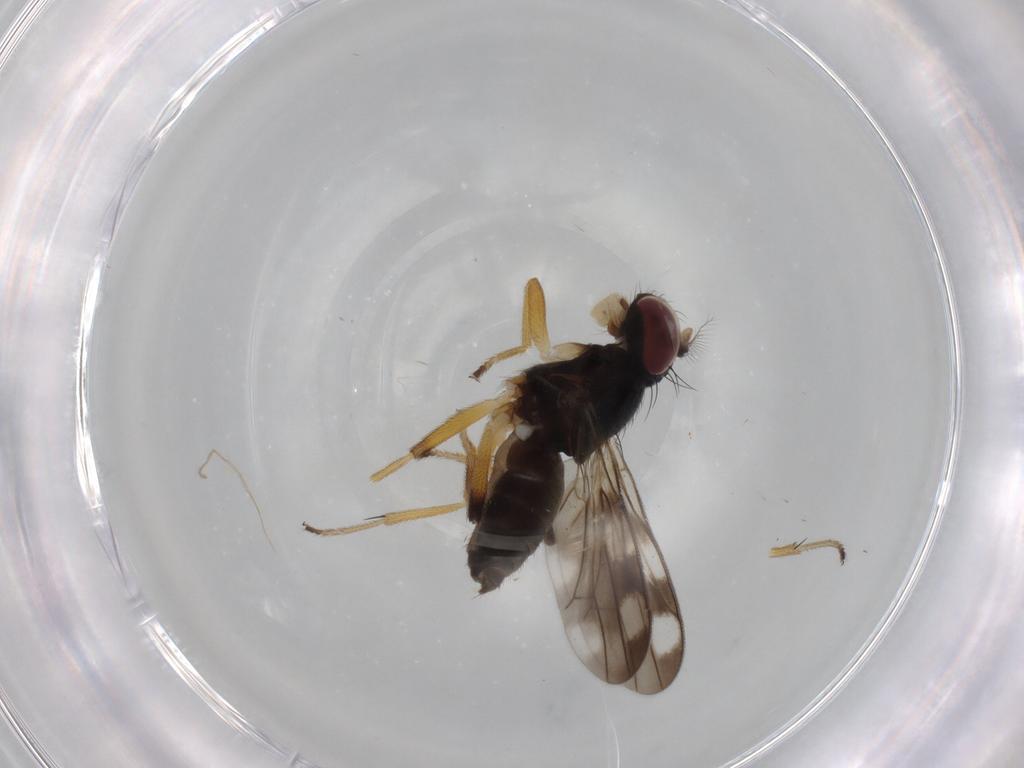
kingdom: Animalia
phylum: Arthropoda
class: Insecta
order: Diptera
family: Periscelididae
